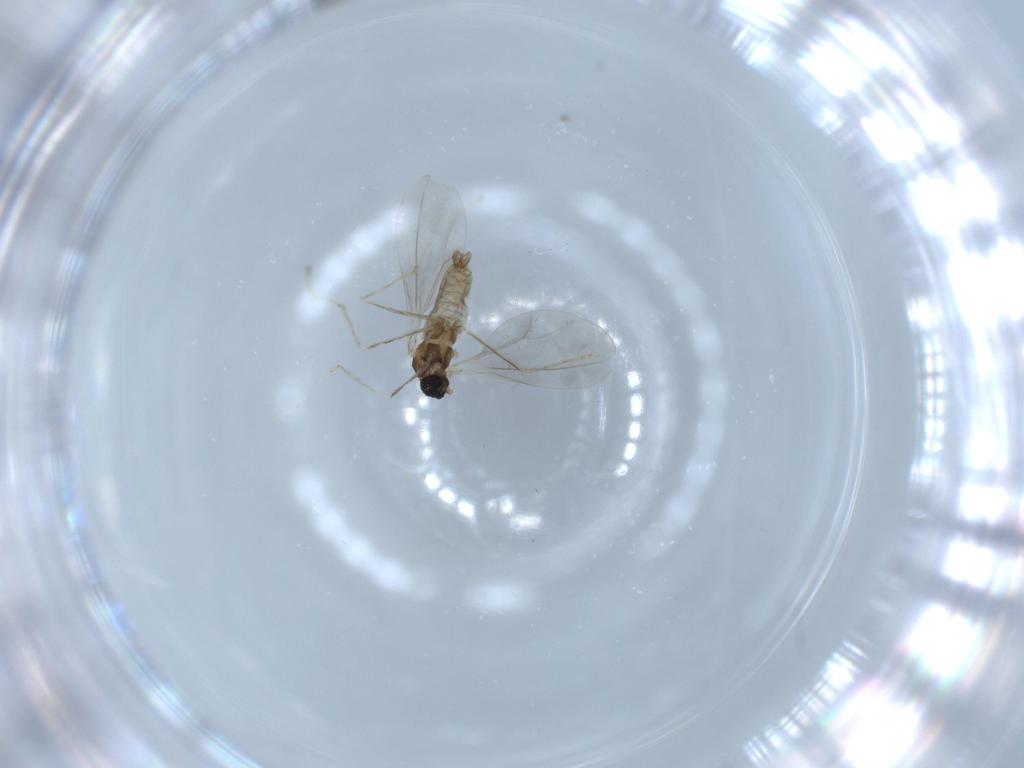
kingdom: Animalia
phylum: Arthropoda
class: Insecta
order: Diptera
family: Cecidomyiidae
